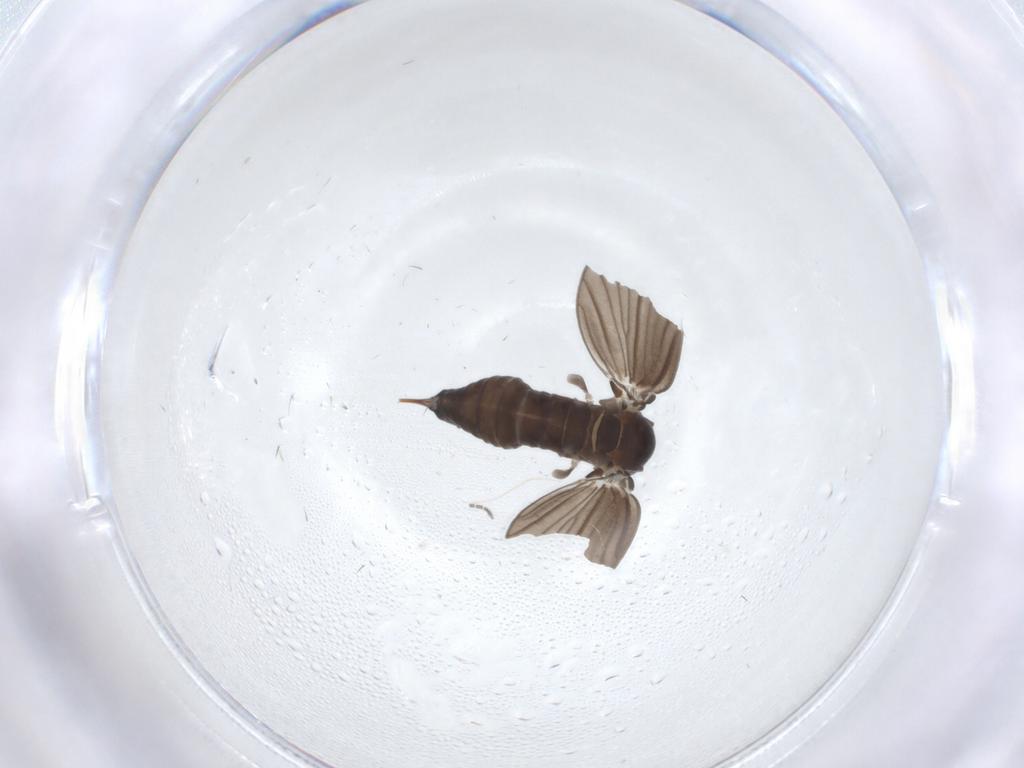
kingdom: Animalia
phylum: Arthropoda
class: Insecta
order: Diptera
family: Psychodidae
